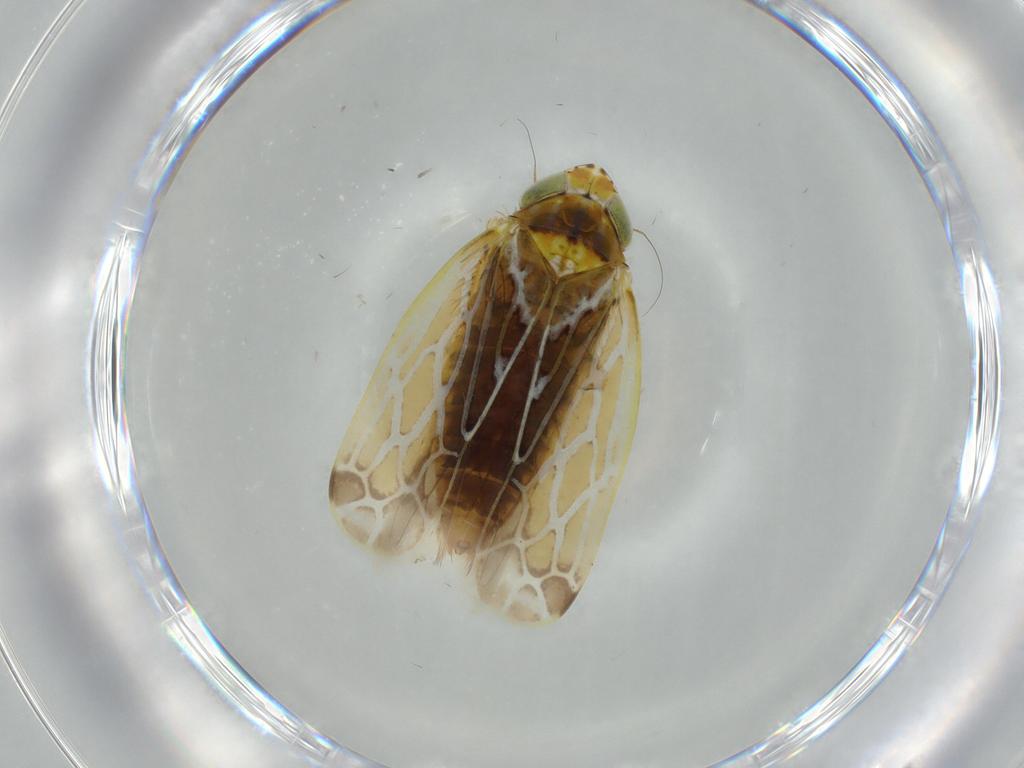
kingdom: Animalia
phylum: Arthropoda
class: Insecta
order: Hemiptera
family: Cicadellidae
